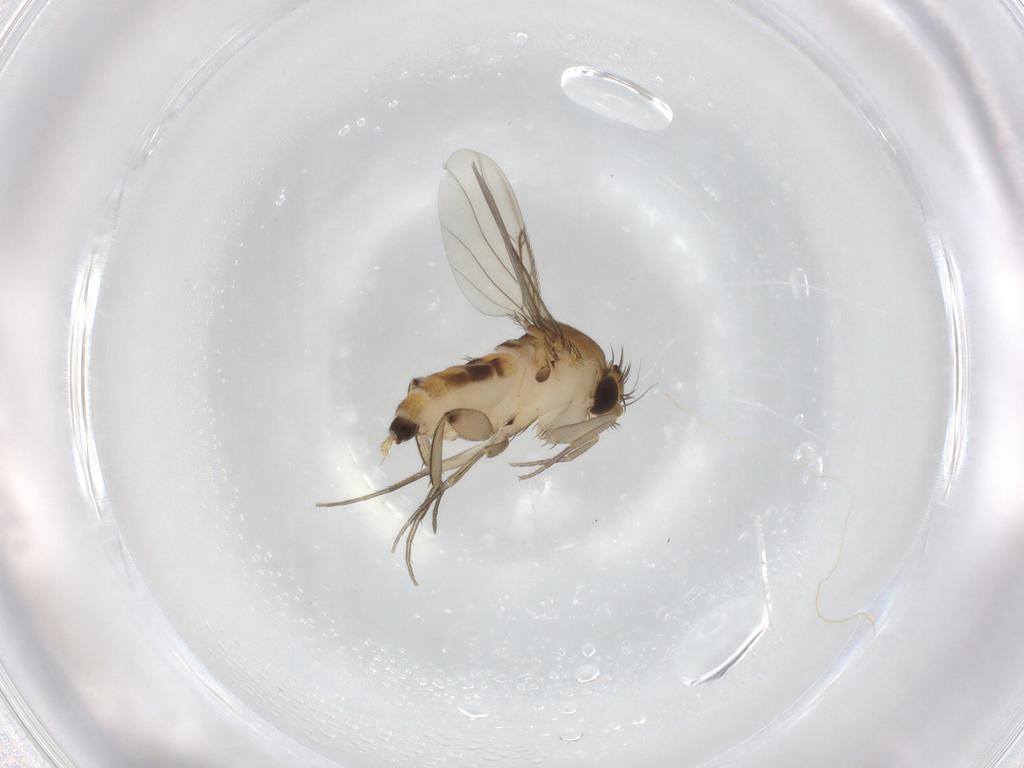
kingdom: Animalia
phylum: Arthropoda
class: Insecta
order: Diptera
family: Phoridae
